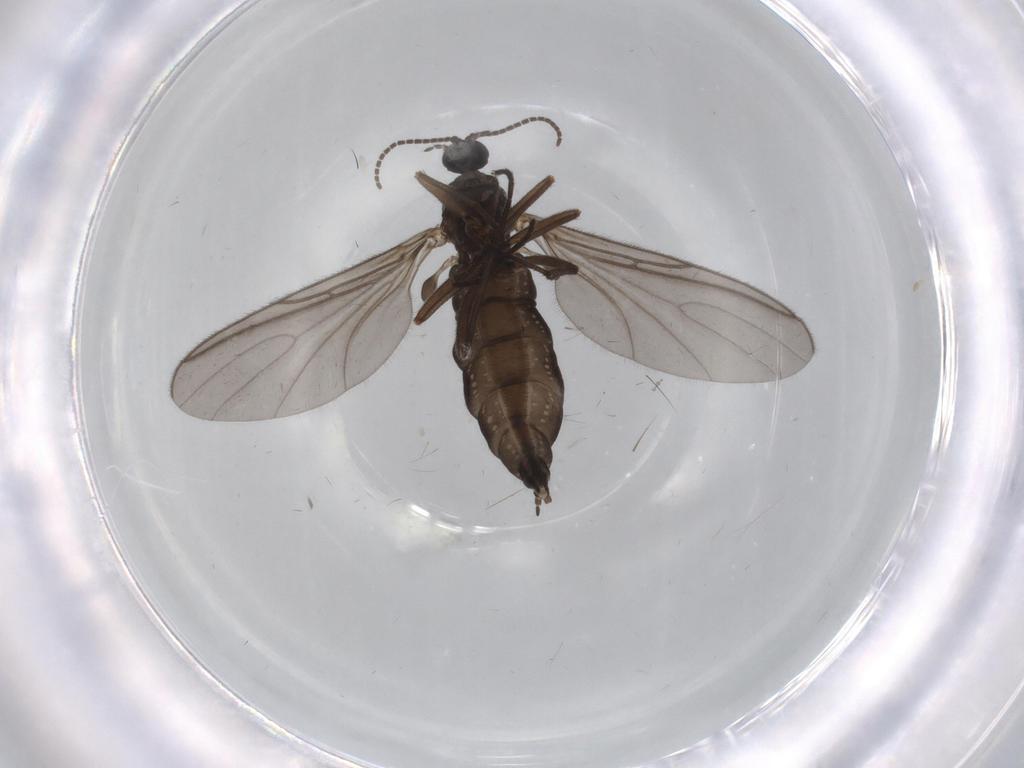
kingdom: Animalia
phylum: Arthropoda
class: Insecta
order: Diptera
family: Sciaridae
